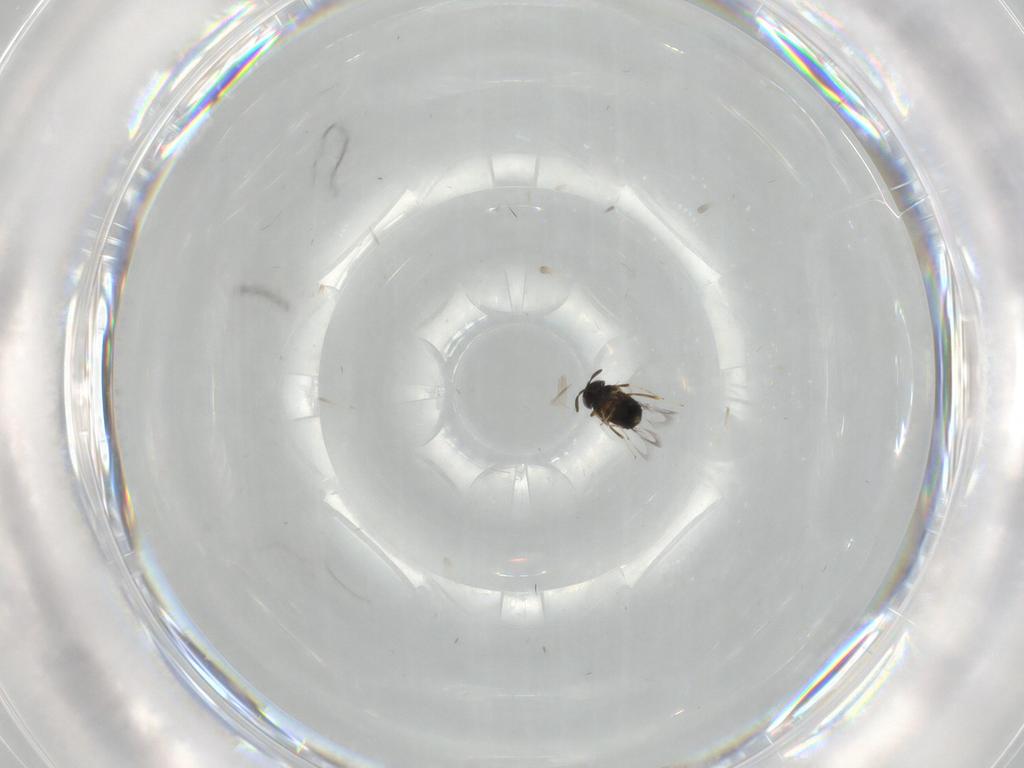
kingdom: Animalia
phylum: Arthropoda
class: Insecta
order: Hymenoptera
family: Signiphoridae
